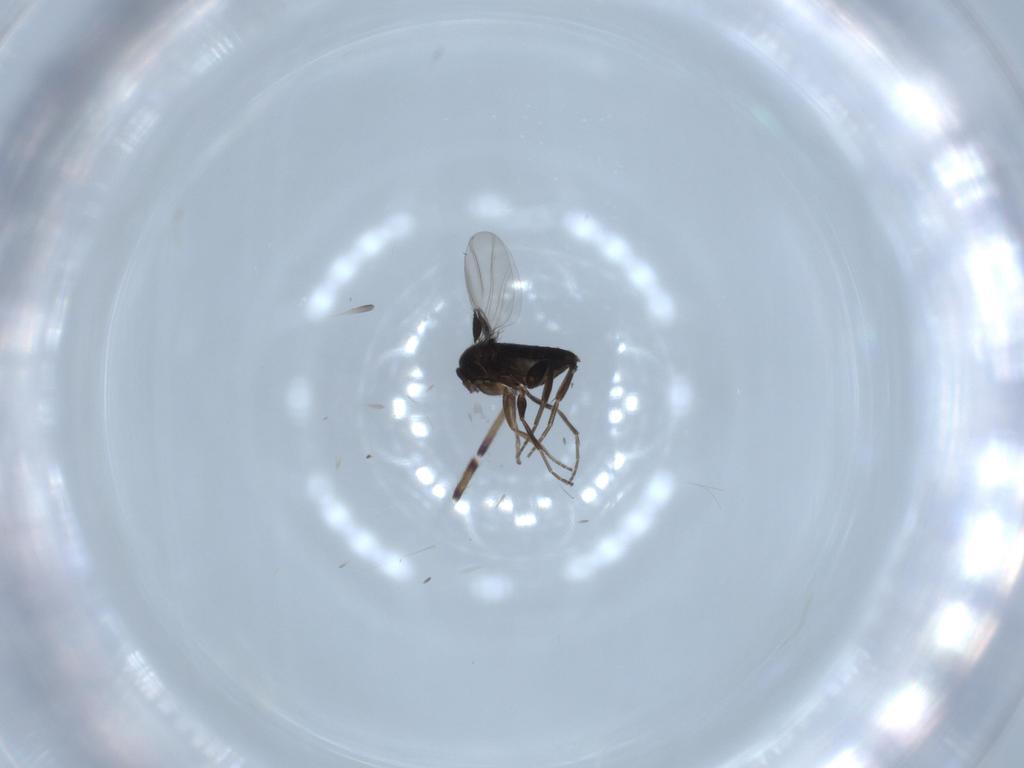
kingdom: Animalia
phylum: Arthropoda
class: Insecta
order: Diptera
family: Phoridae
